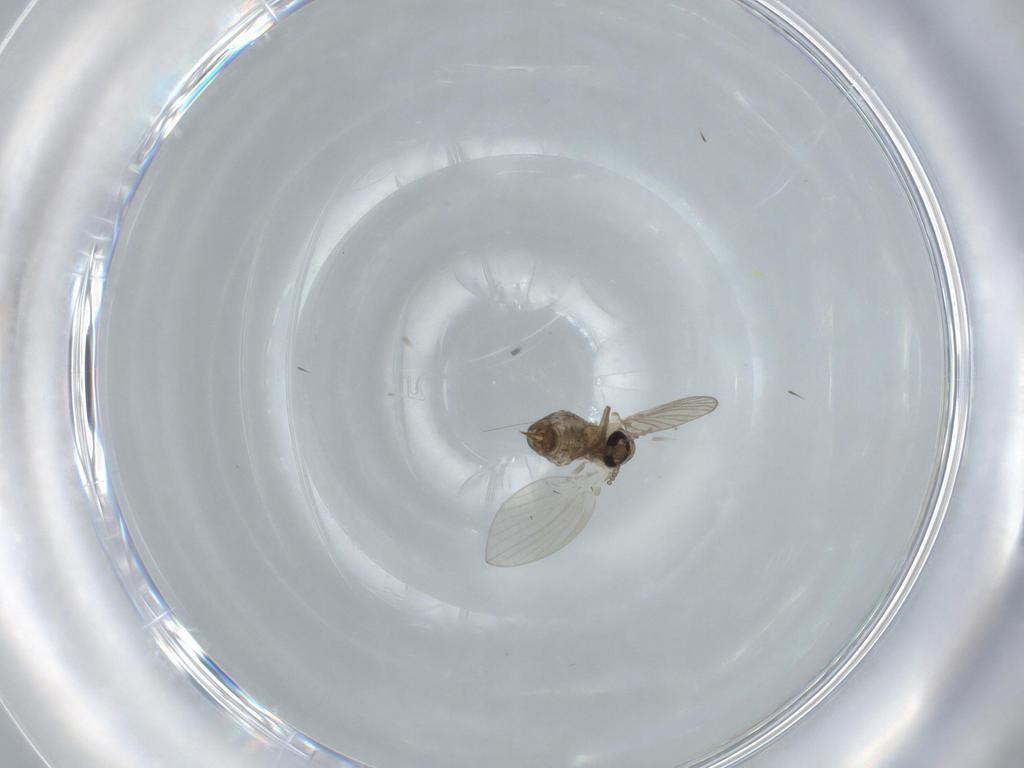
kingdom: Animalia
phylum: Arthropoda
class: Insecta
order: Diptera
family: Psychodidae
